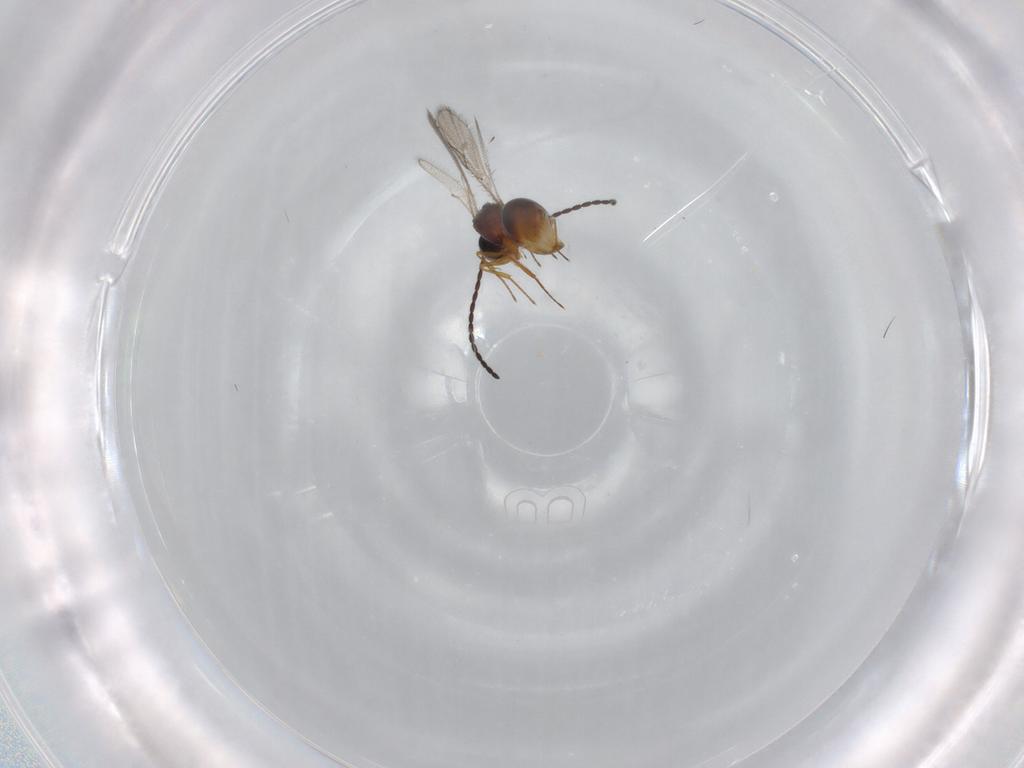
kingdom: Animalia
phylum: Arthropoda
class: Insecta
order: Hymenoptera
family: Figitidae
